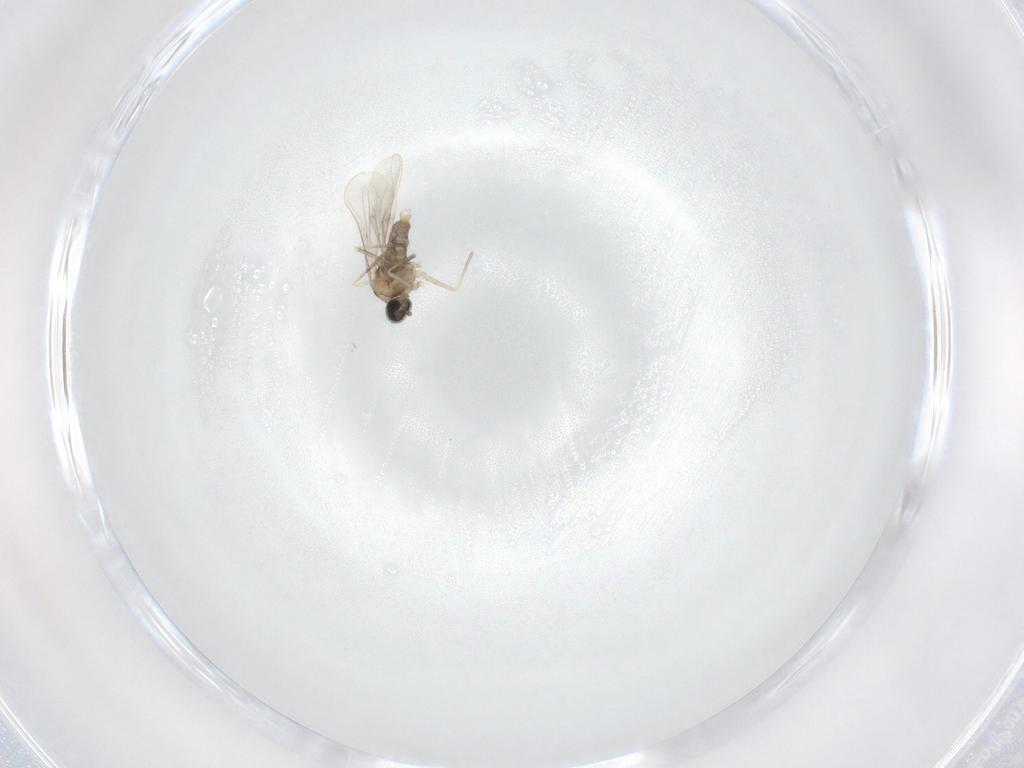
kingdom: Animalia
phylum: Arthropoda
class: Insecta
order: Diptera
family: Cecidomyiidae
